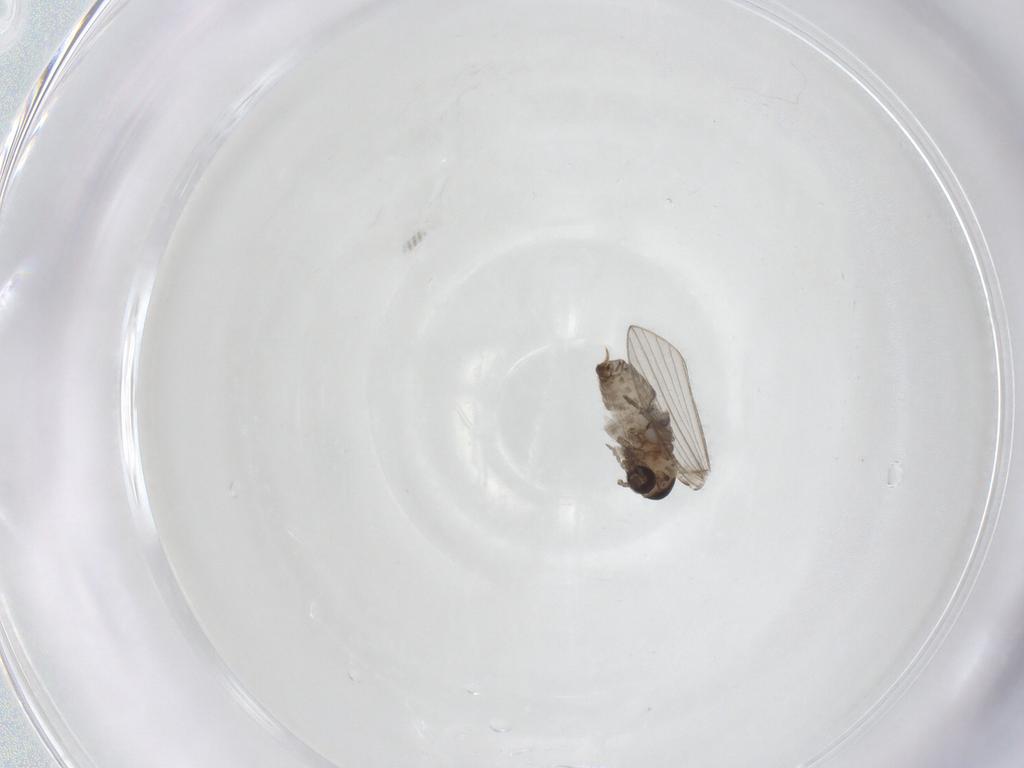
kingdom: Animalia
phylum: Arthropoda
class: Insecta
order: Diptera
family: Psychodidae
